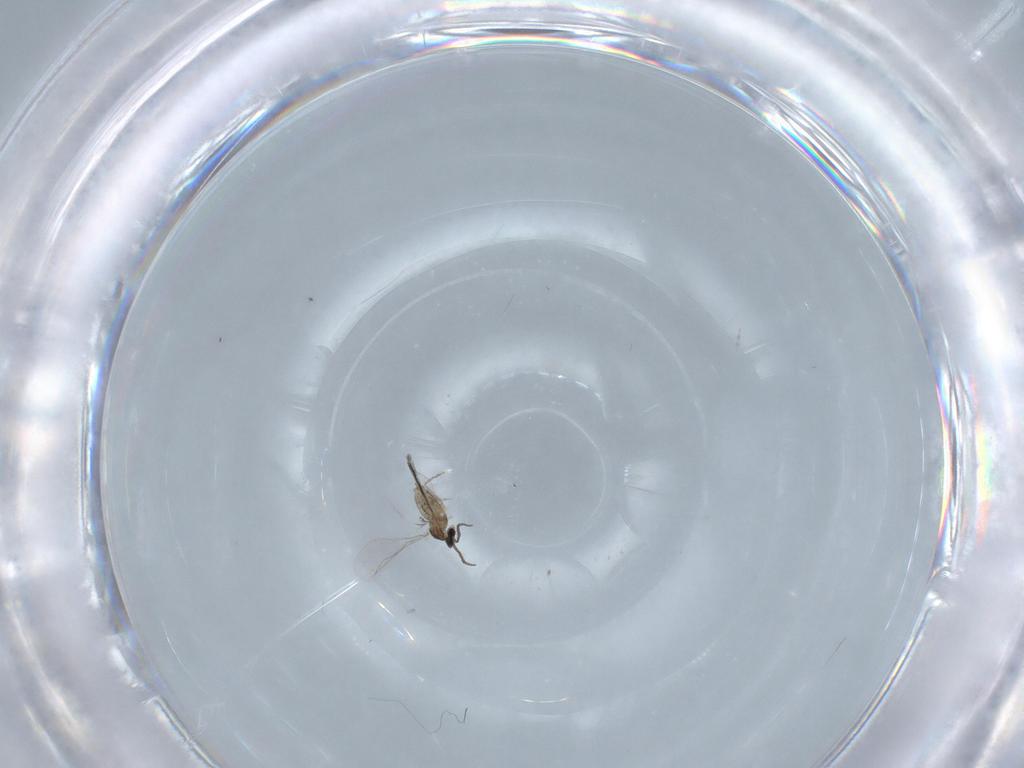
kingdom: Animalia
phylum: Arthropoda
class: Insecta
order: Diptera
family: Cecidomyiidae
